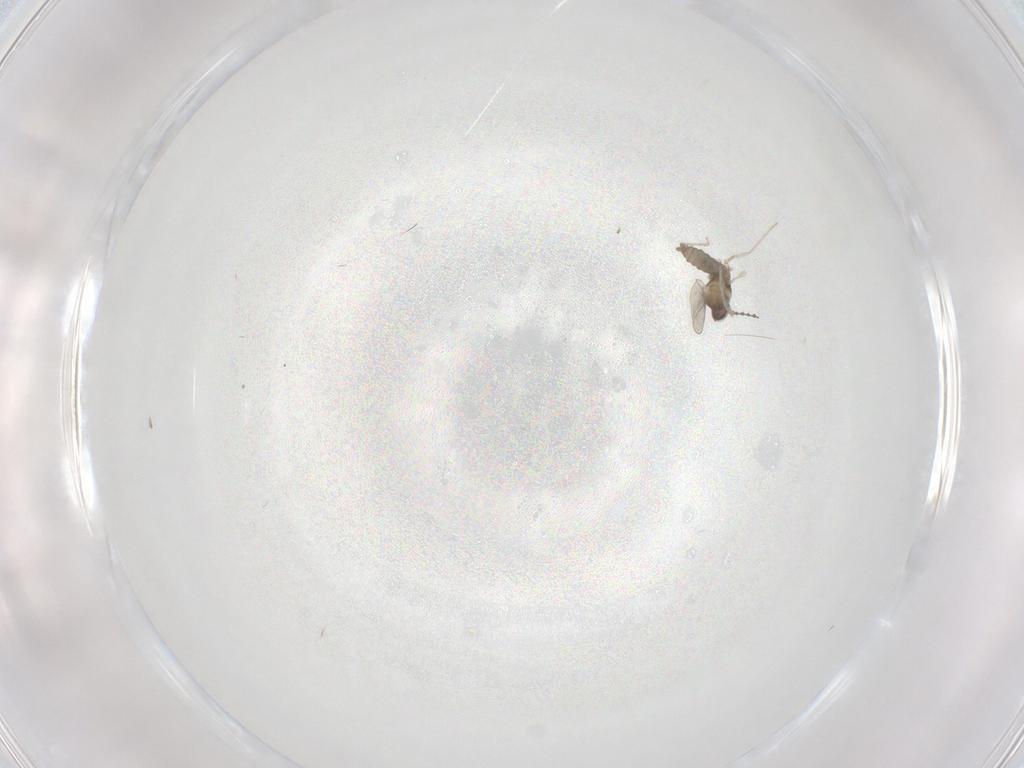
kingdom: Animalia
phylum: Arthropoda
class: Insecta
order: Diptera
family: Cecidomyiidae
